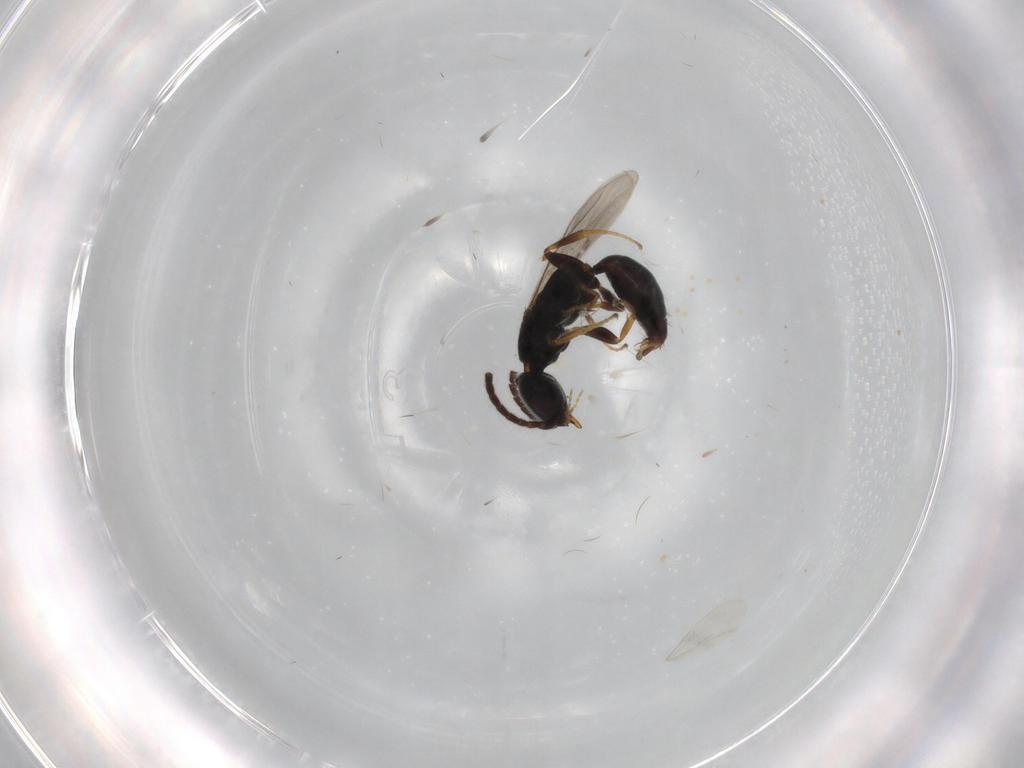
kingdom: Animalia
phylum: Arthropoda
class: Insecta
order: Hymenoptera
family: Bethylidae
